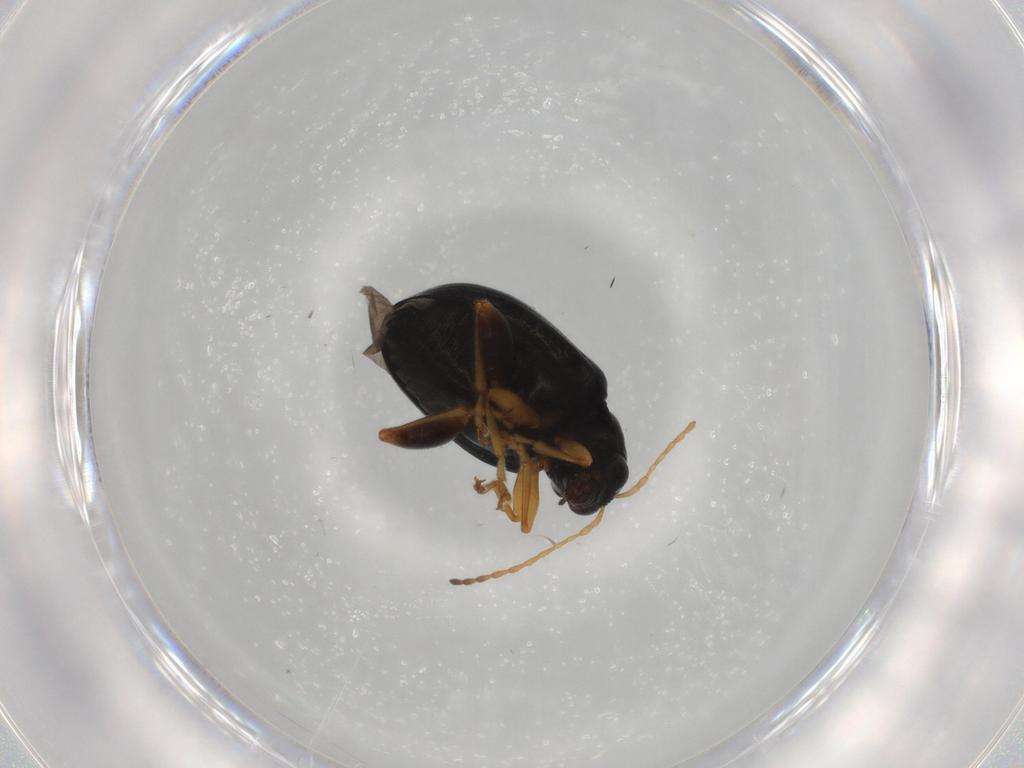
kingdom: Animalia
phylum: Arthropoda
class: Insecta
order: Coleoptera
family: Chrysomelidae
